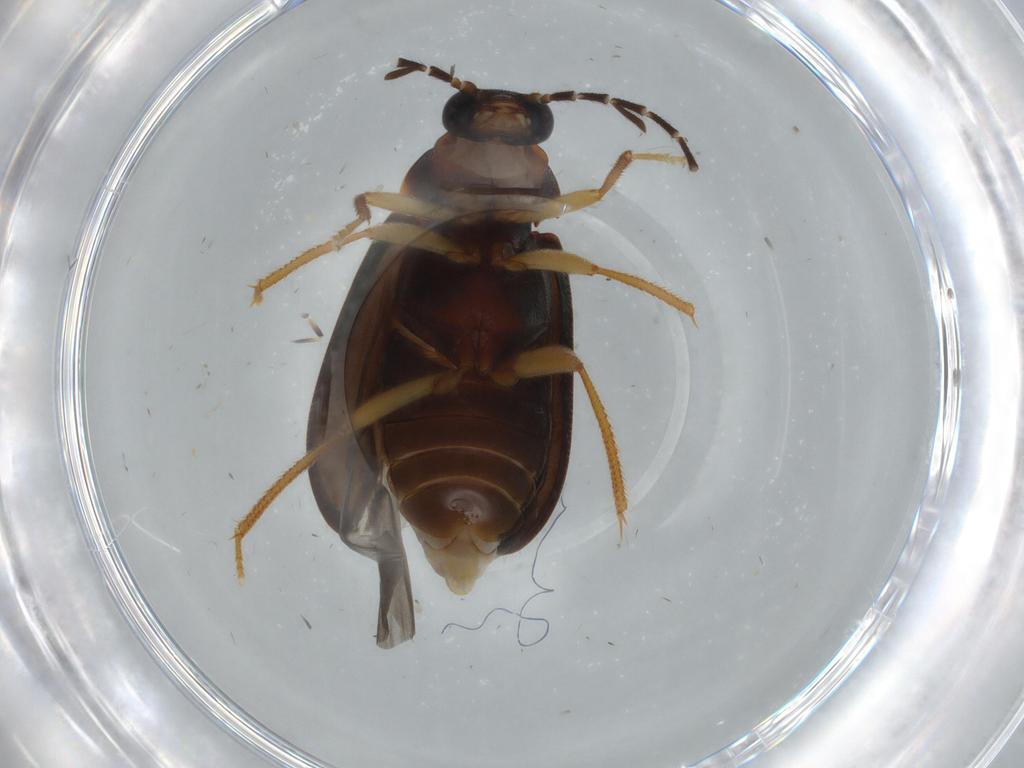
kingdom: Animalia
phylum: Arthropoda
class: Insecta
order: Coleoptera
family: Ptilodactylidae
